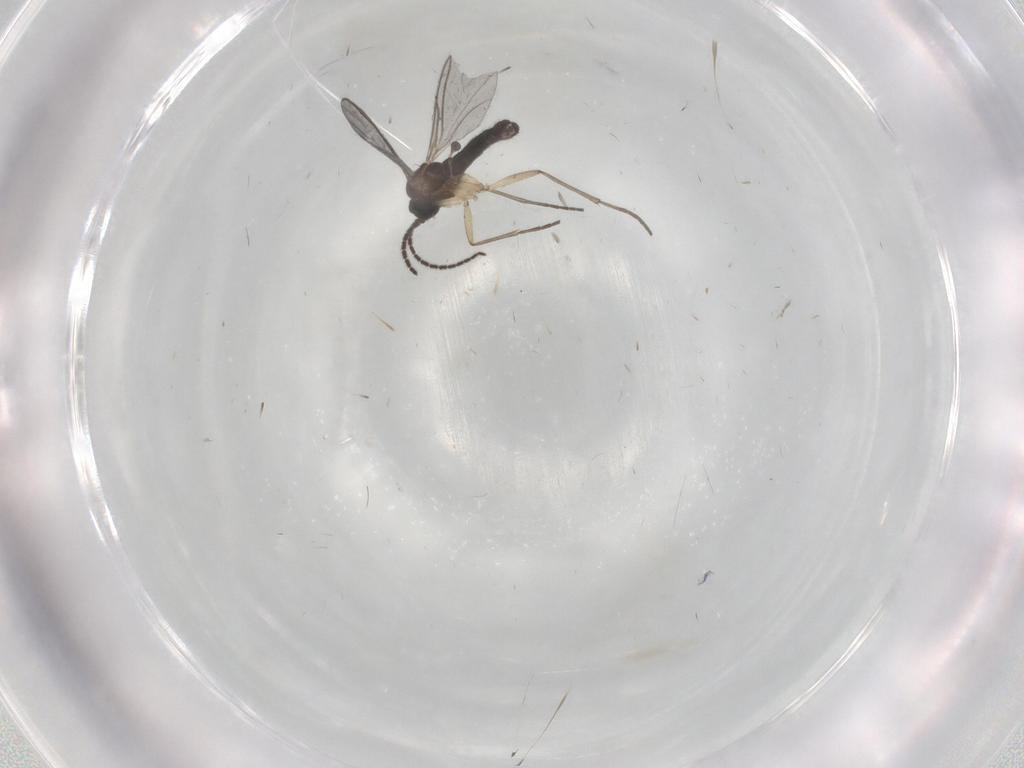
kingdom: Animalia
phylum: Arthropoda
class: Insecta
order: Diptera
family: Sciaridae
